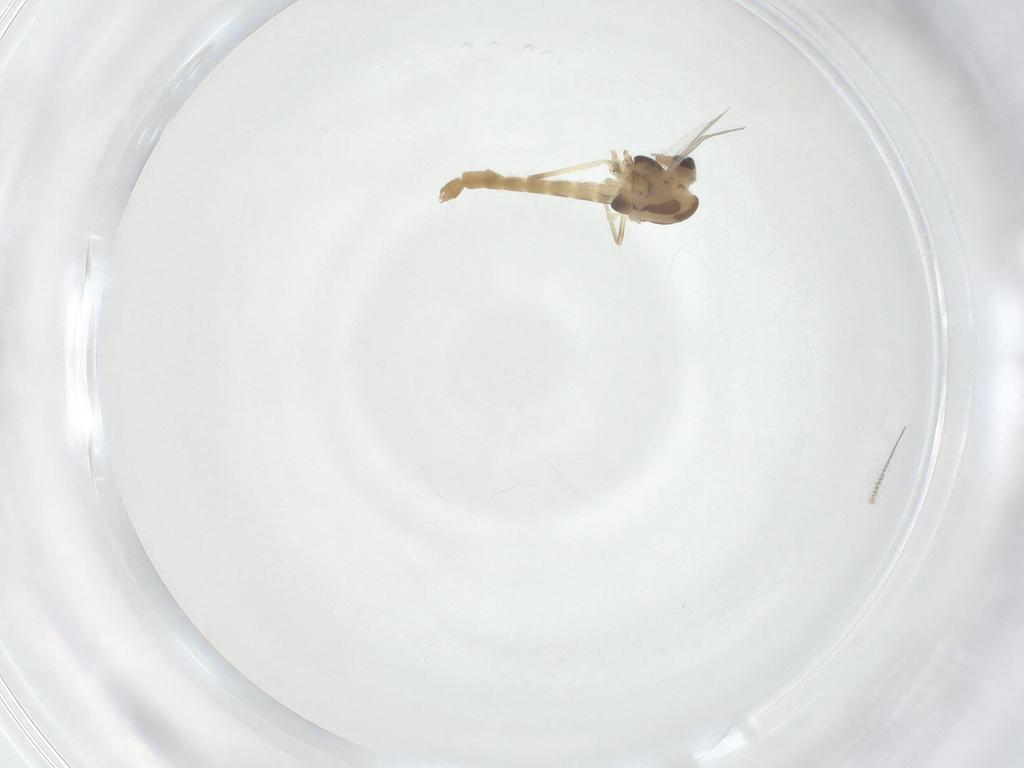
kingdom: Animalia
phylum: Arthropoda
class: Insecta
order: Diptera
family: Chironomidae
